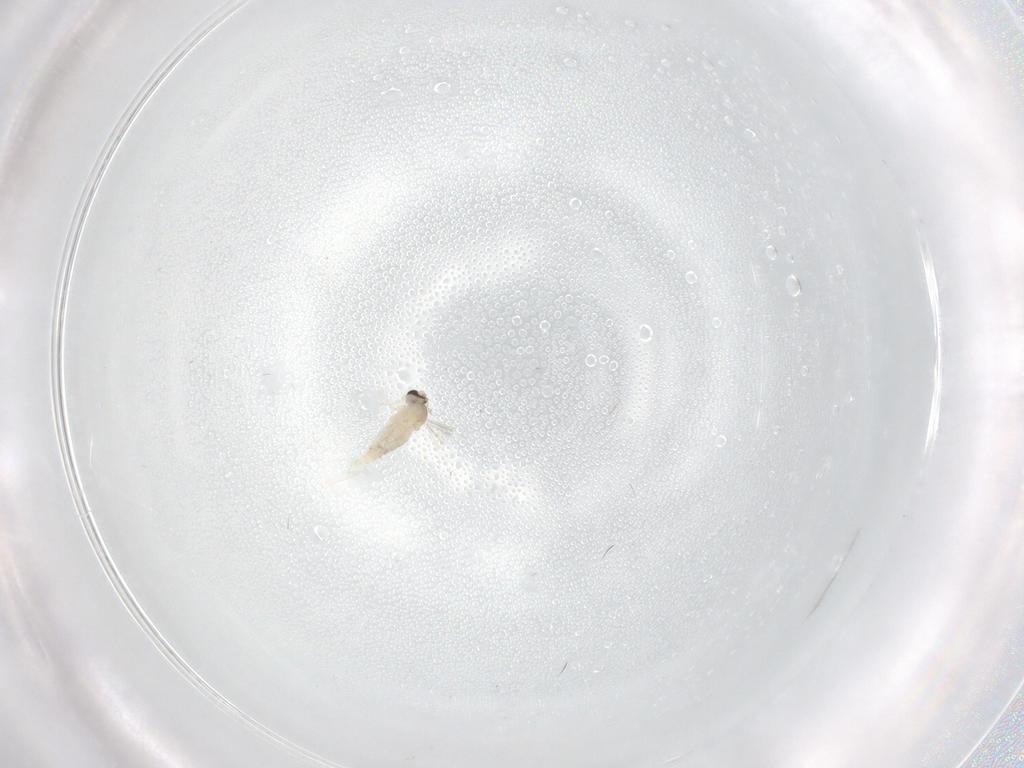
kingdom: Animalia
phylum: Arthropoda
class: Insecta
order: Diptera
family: Cecidomyiidae
